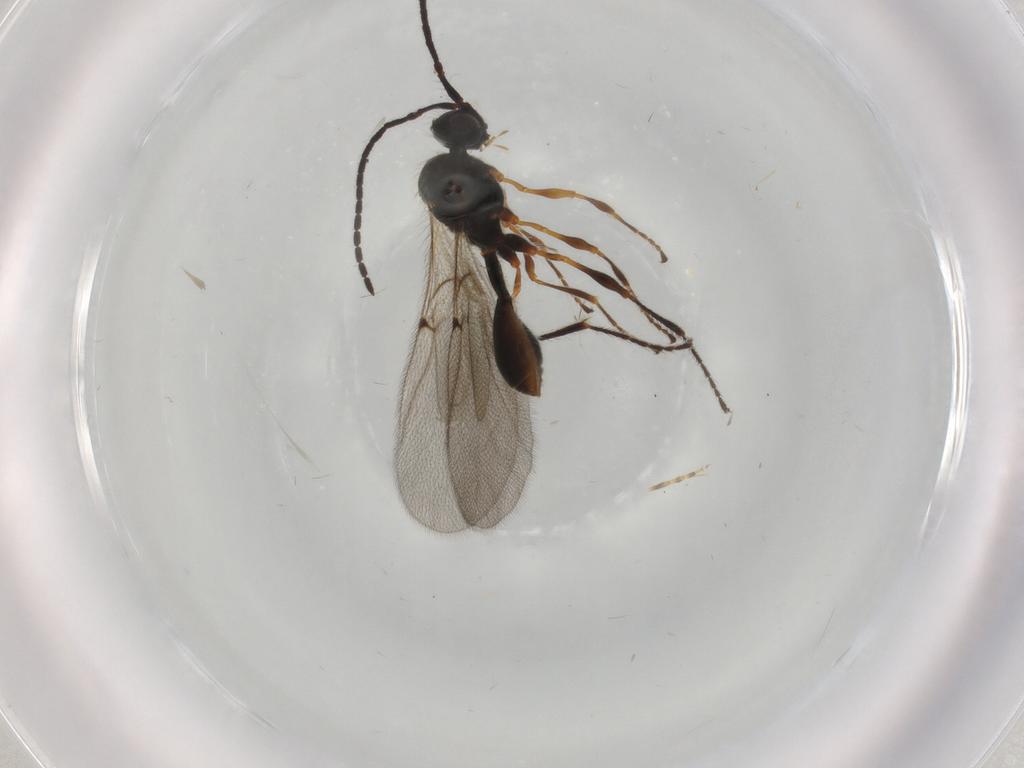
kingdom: Animalia
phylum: Arthropoda
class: Insecta
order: Hymenoptera
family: Diapriidae
